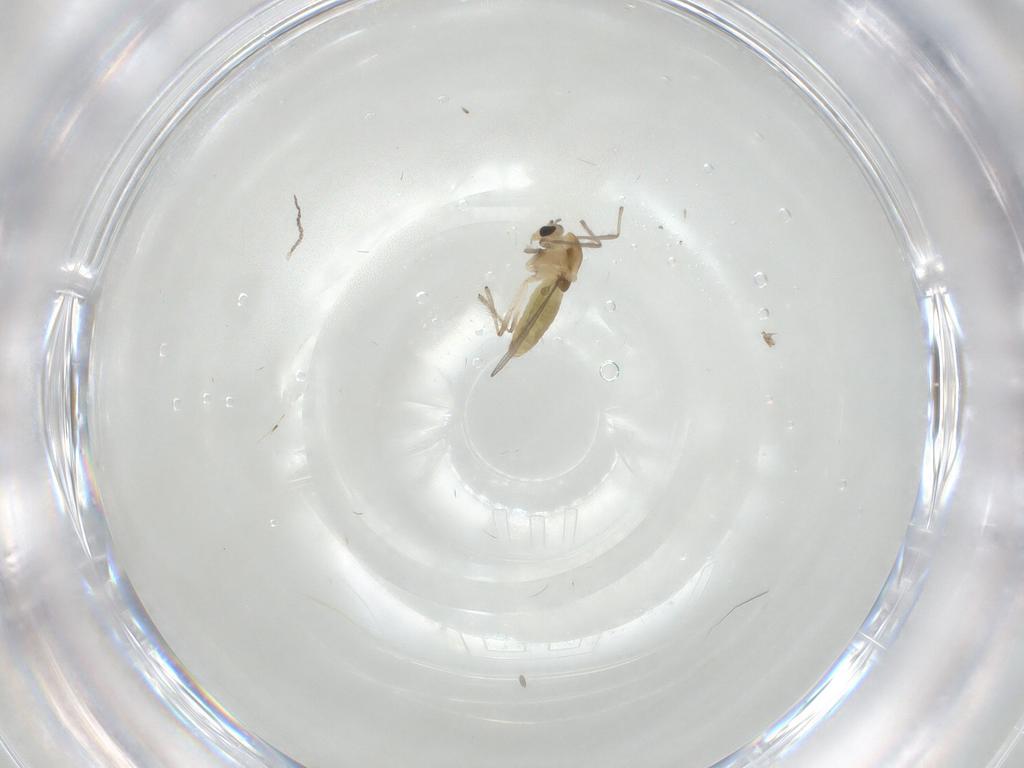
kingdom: Animalia
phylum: Arthropoda
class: Insecta
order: Diptera
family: Chironomidae
